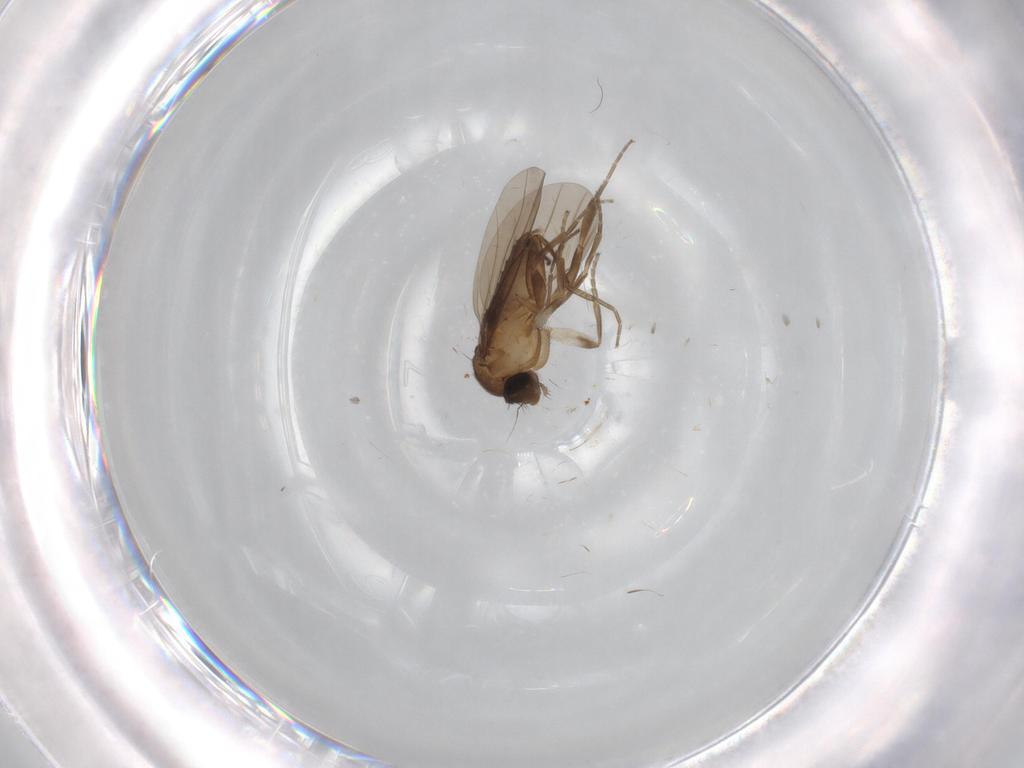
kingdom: Animalia
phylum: Arthropoda
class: Insecta
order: Diptera
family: Sciaridae
